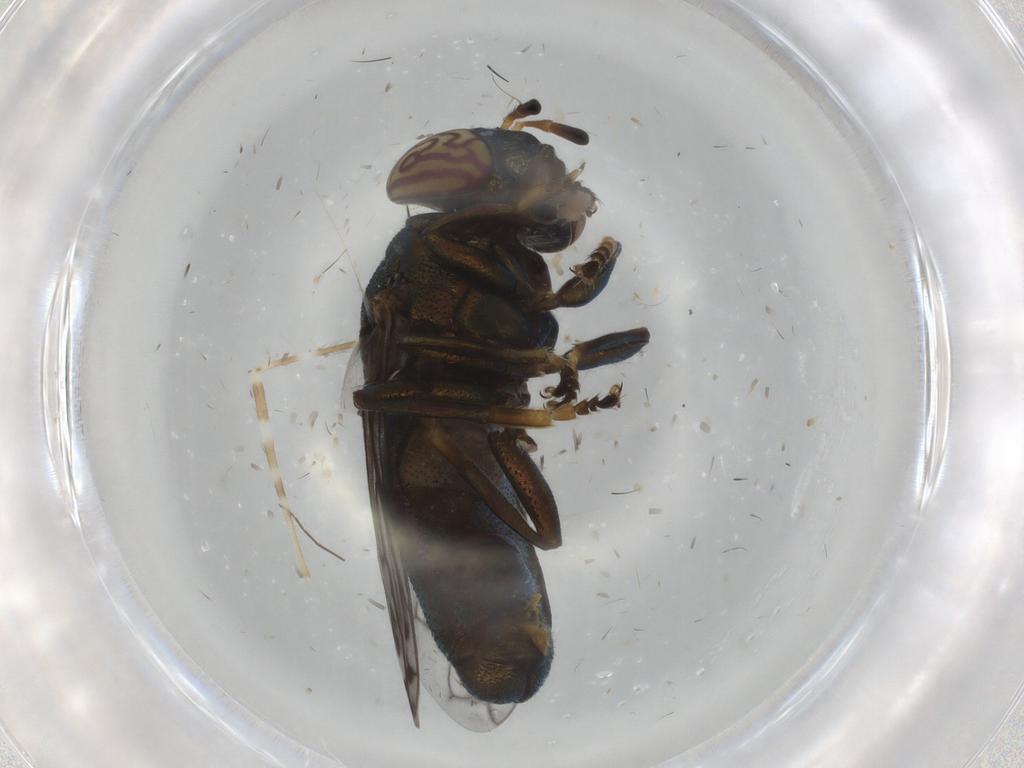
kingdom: Animalia
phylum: Arthropoda
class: Insecta
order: Diptera
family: Syrphidae
